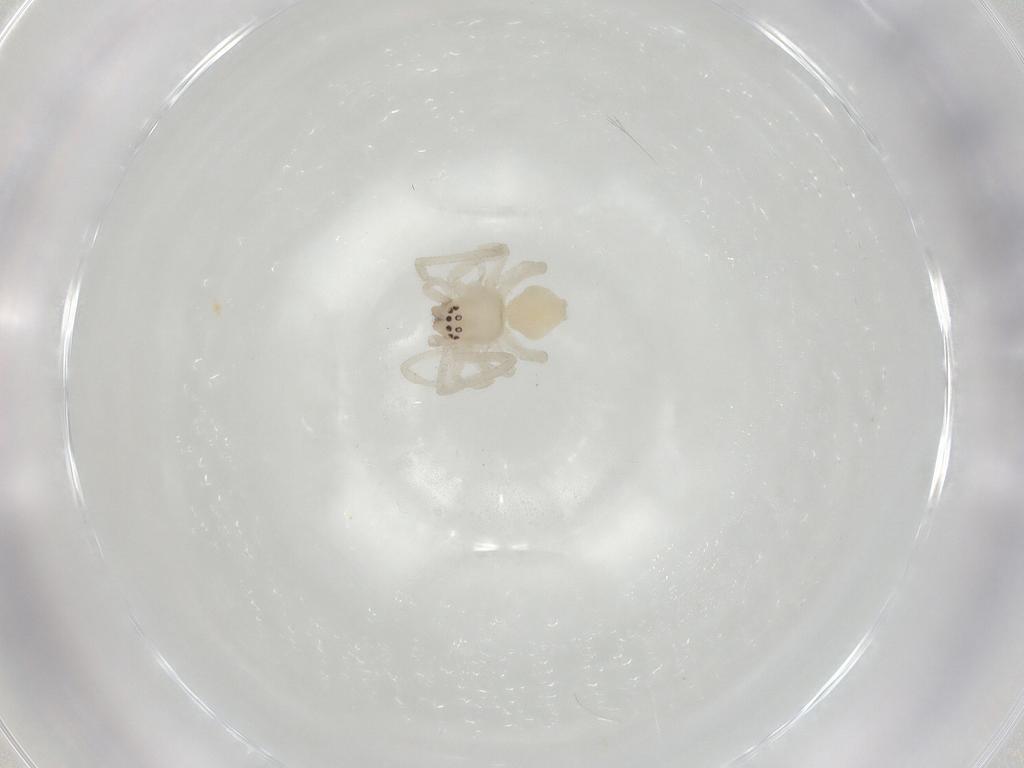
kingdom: Animalia
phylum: Arthropoda
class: Arachnida
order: Araneae
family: Cheiracanthiidae
